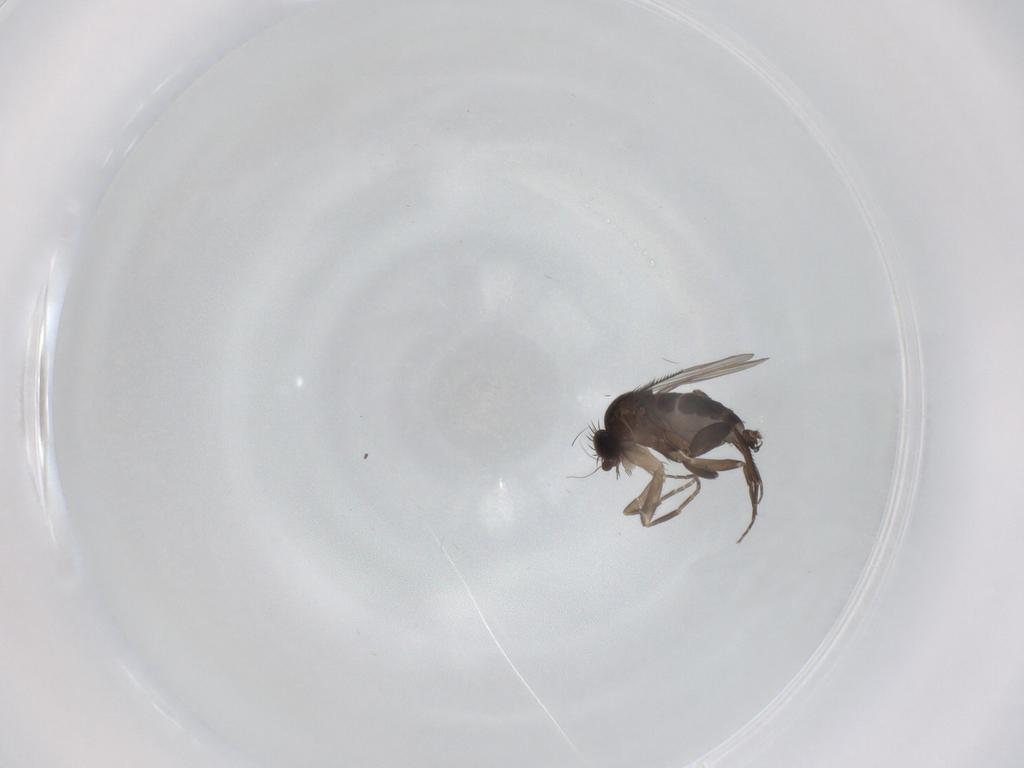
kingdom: Animalia
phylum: Arthropoda
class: Insecta
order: Diptera
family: Phoridae
